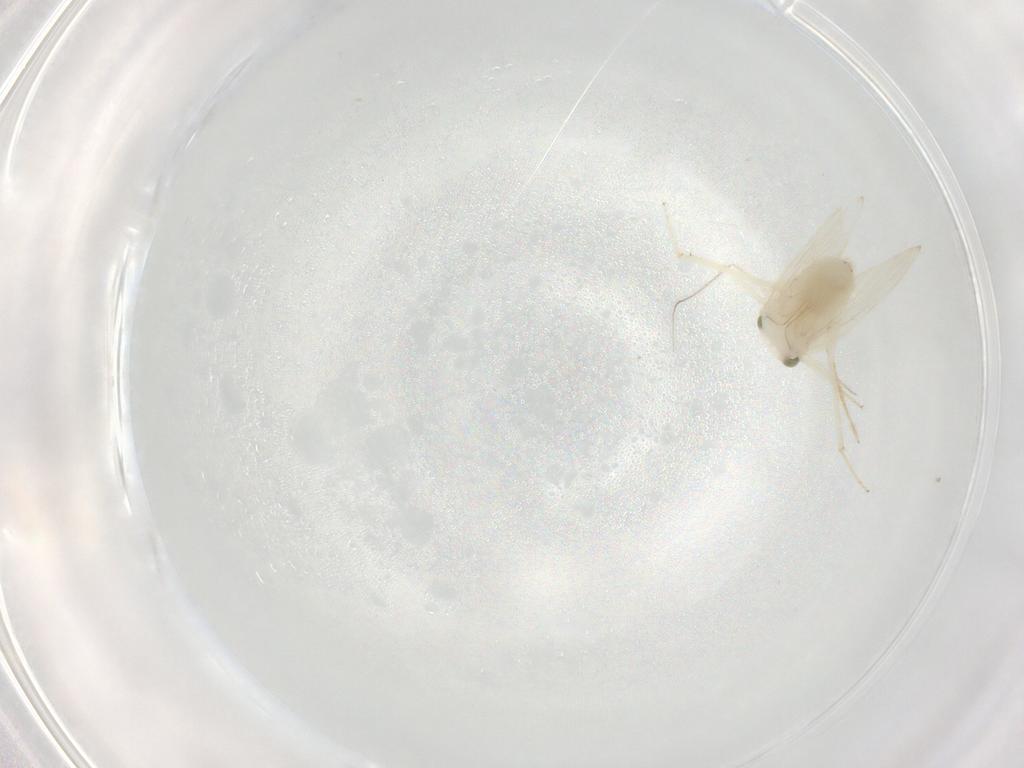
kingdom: Animalia
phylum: Arthropoda
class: Insecta
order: Psocodea
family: Lepidopsocidae
